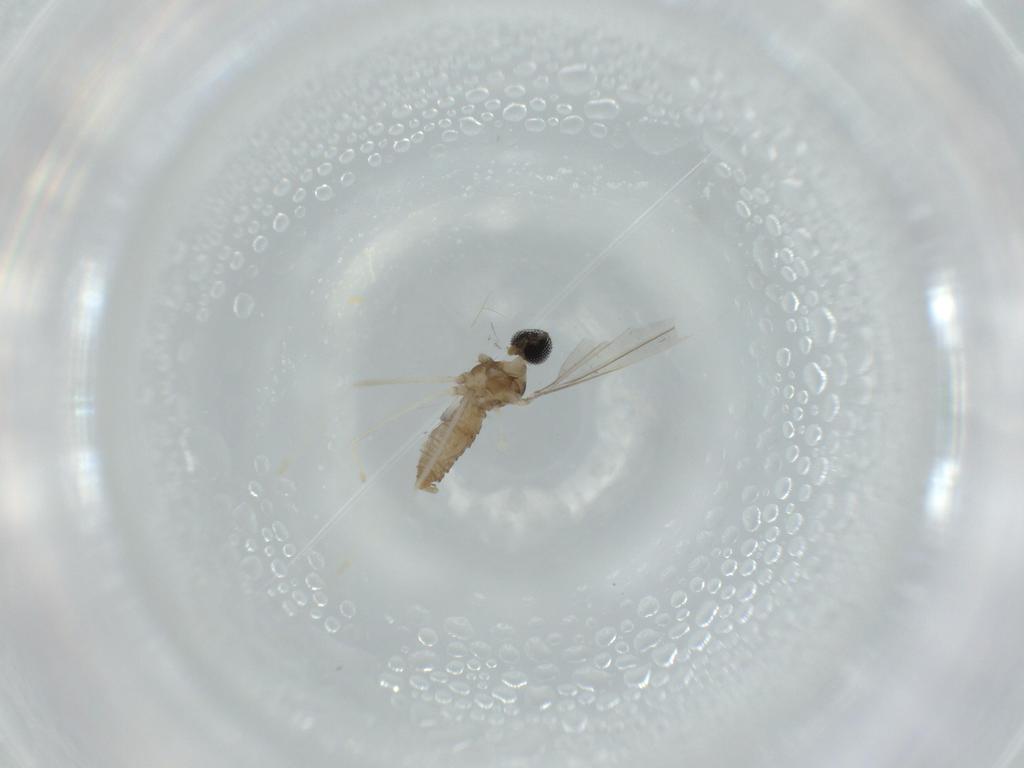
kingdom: Animalia
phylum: Arthropoda
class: Insecta
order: Diptera
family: Cecidomyiidae
